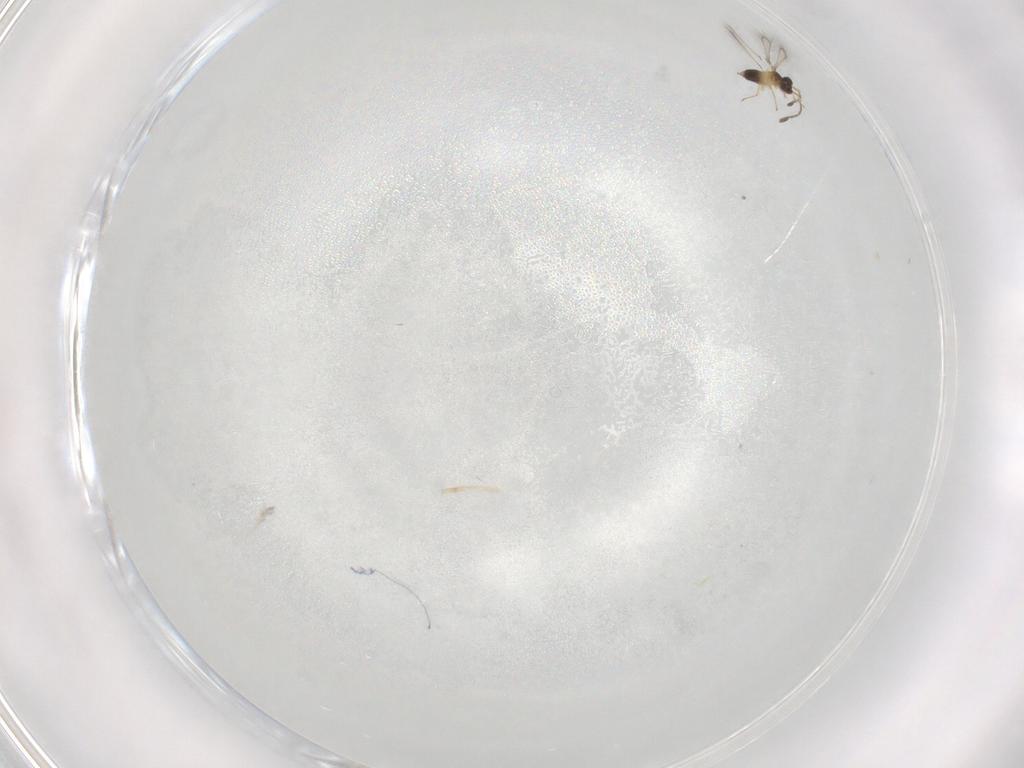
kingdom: Animalia
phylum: Arthropoda
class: Insecta
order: Hymenoptera
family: Mymaridae
